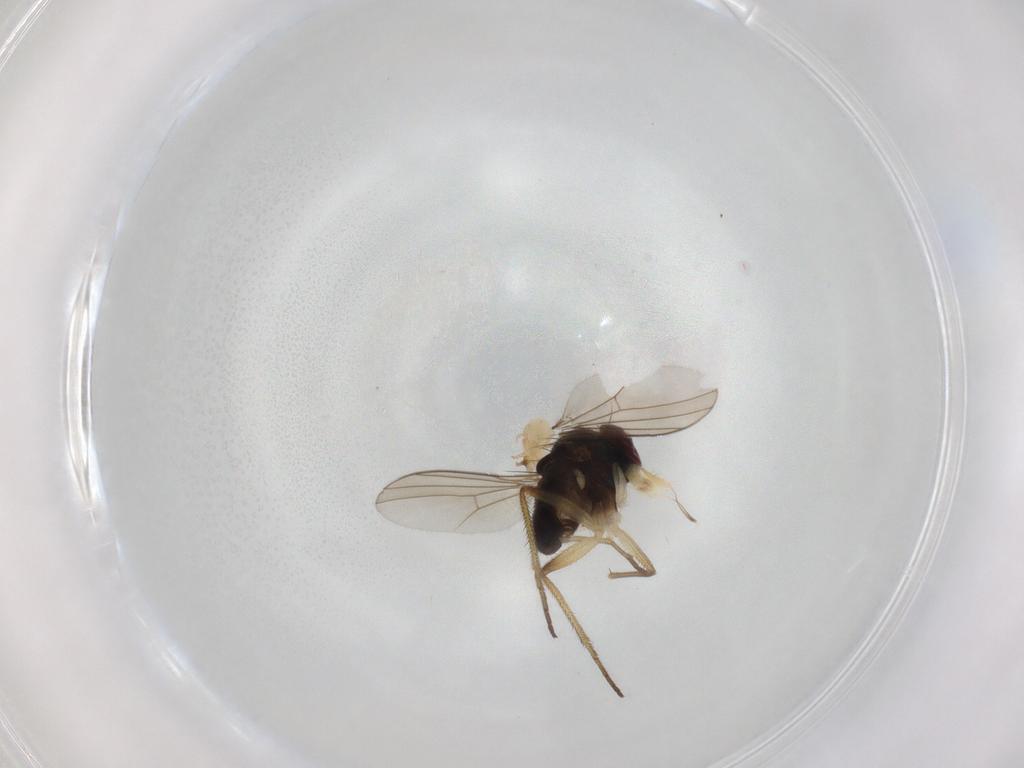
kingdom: Animalia
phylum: Arthropoda
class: Insecta
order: Diptera
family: Dolichopodidae
